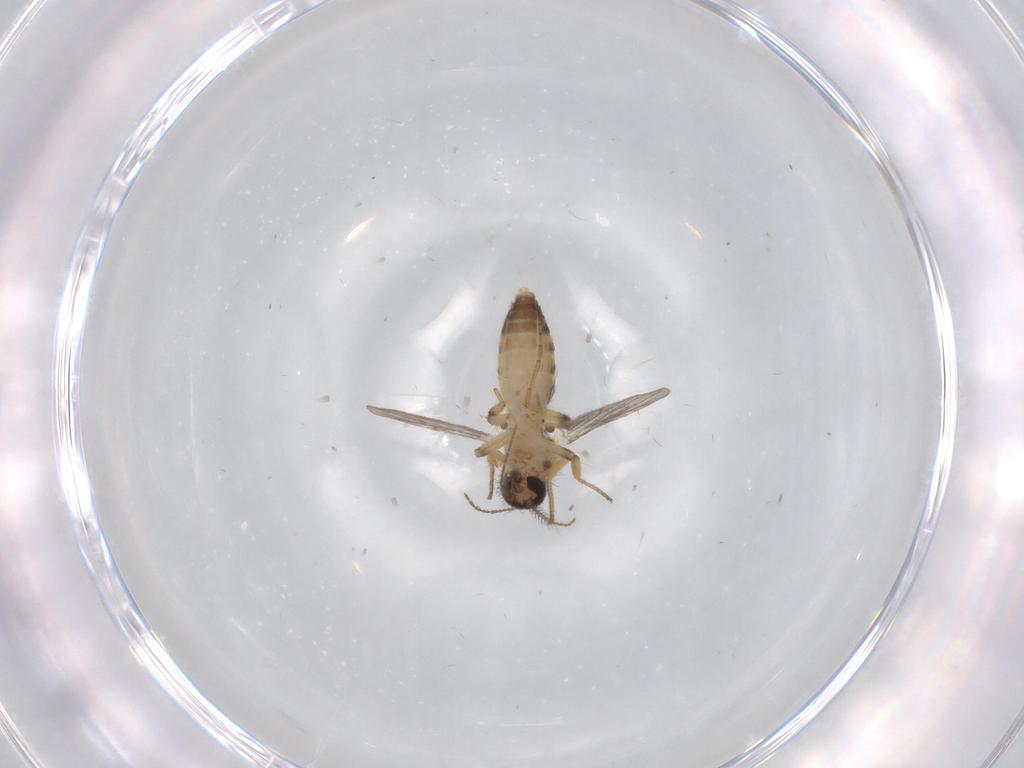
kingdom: Animalia
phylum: Arthropoda
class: Insecta
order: Diptera
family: Ceratopogonidae
